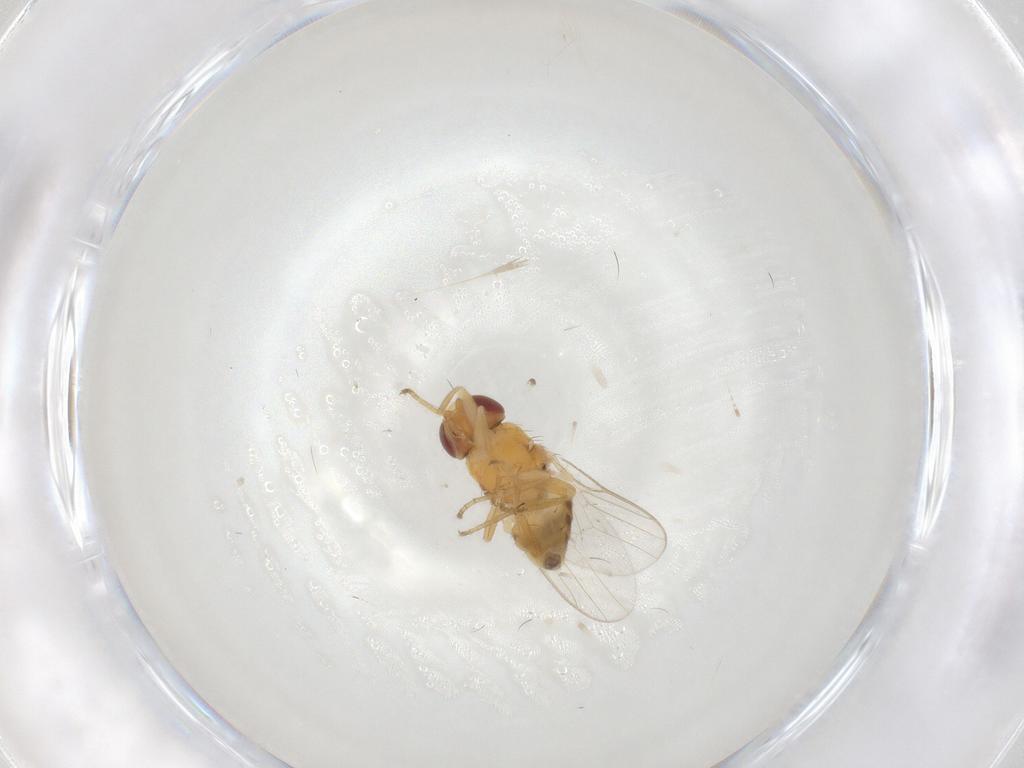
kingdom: Animalia
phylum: Arthropoda
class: Insecta
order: Diptera
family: Chloropidae
